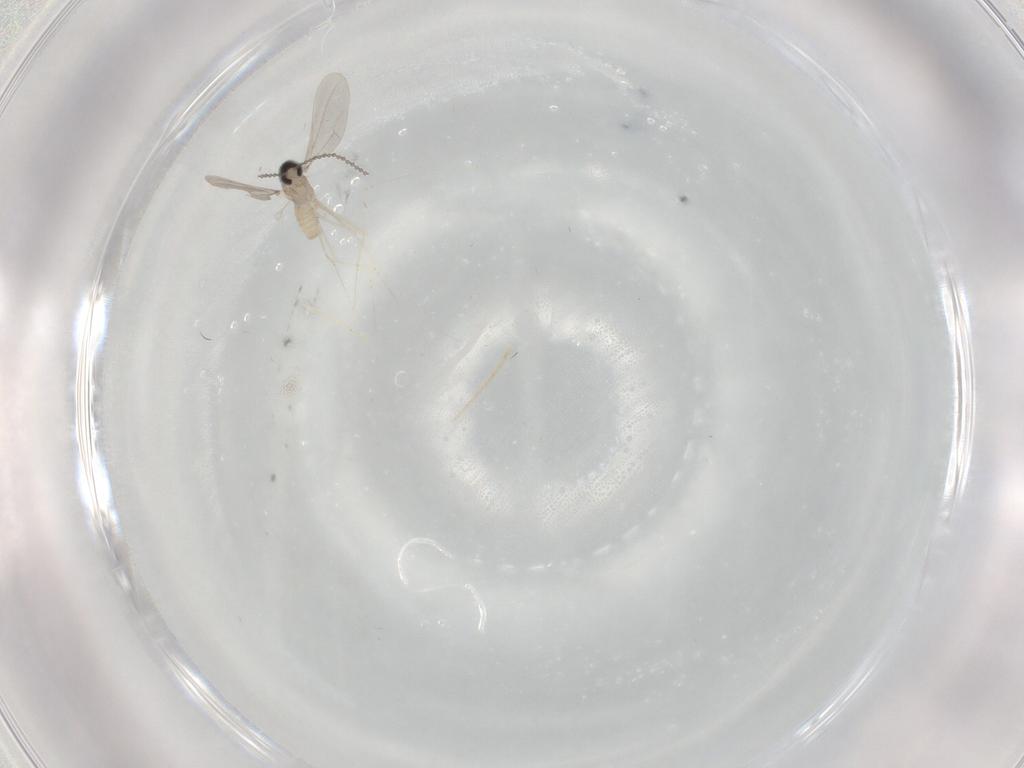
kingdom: Animalia
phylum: Arthropoda
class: Insecta
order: Diptera
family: Cecidomyiidae
